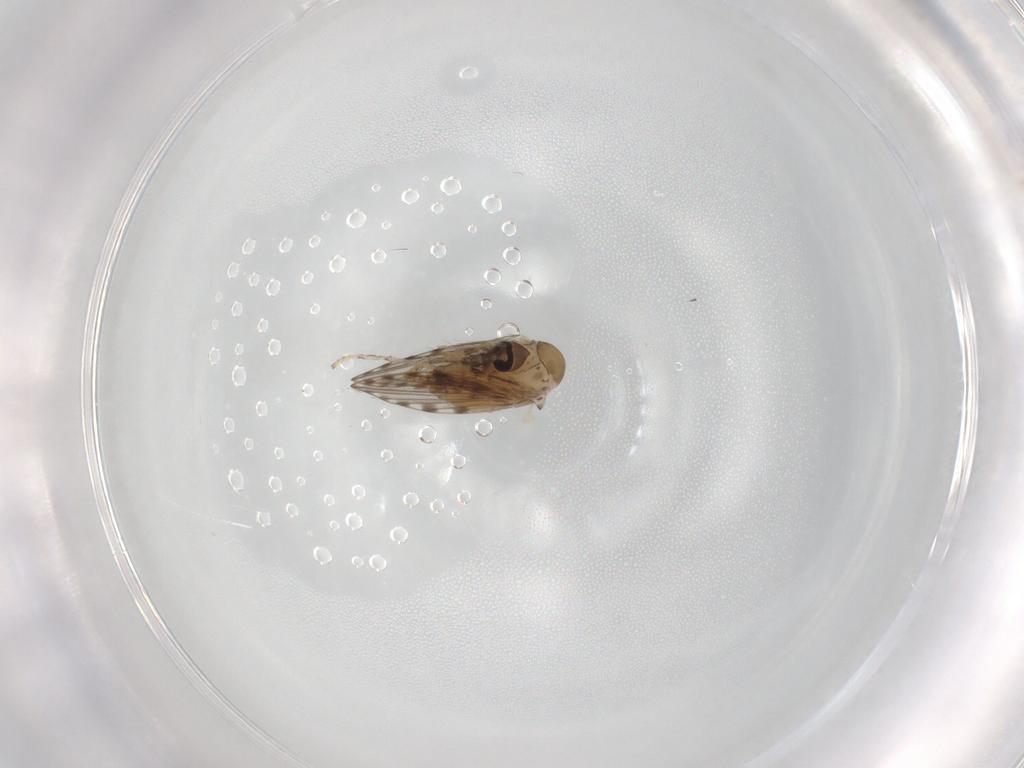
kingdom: Animalia
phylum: Arthropoda
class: Insecta
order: Diptera
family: Psychodidae
